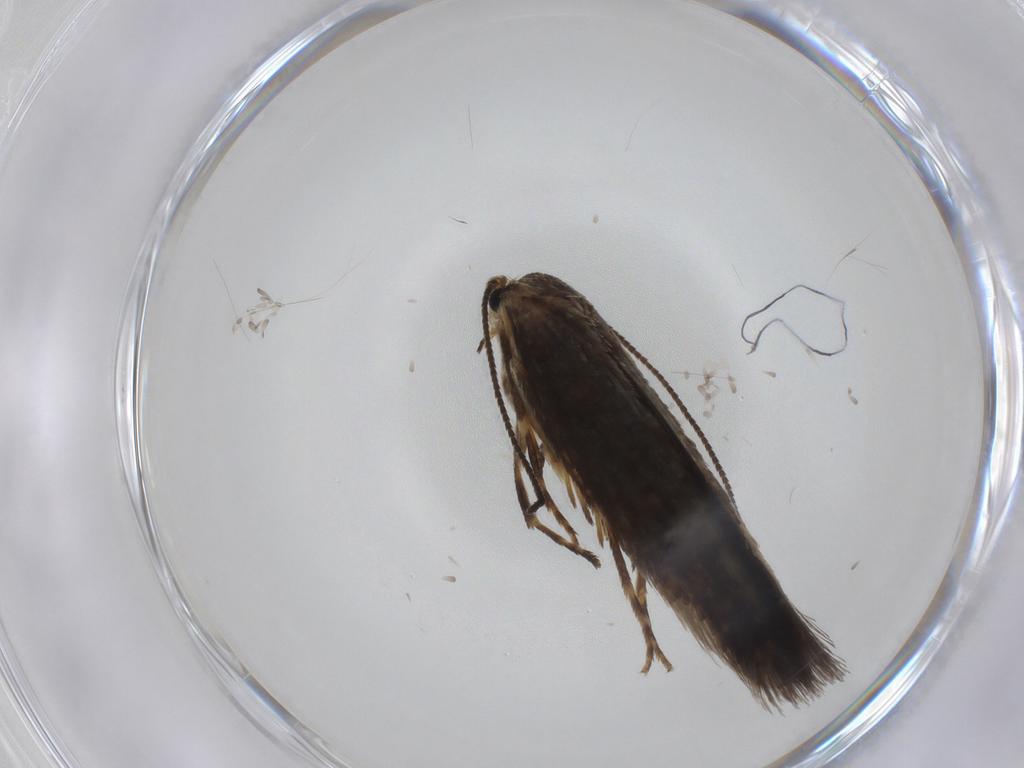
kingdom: Animalia
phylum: Arthropoda
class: Insecta
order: Lepidoptera
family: Nepticulidae
